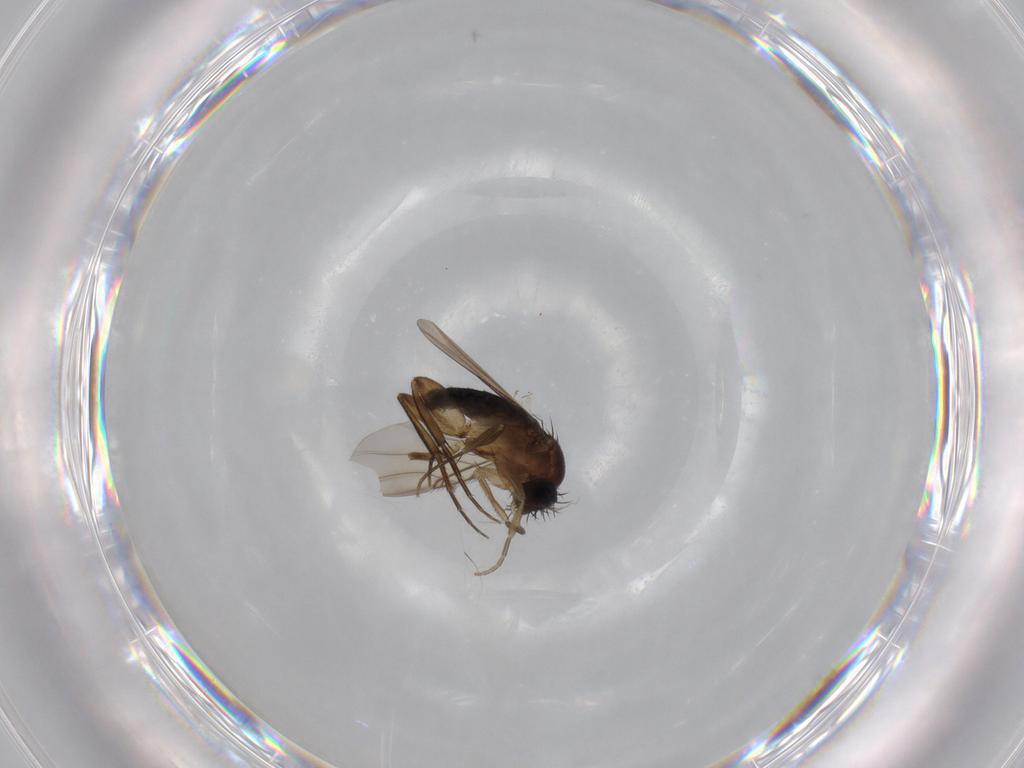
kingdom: Animalia
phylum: Arthropoda
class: Insecta
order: Diptera
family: Phoridae
